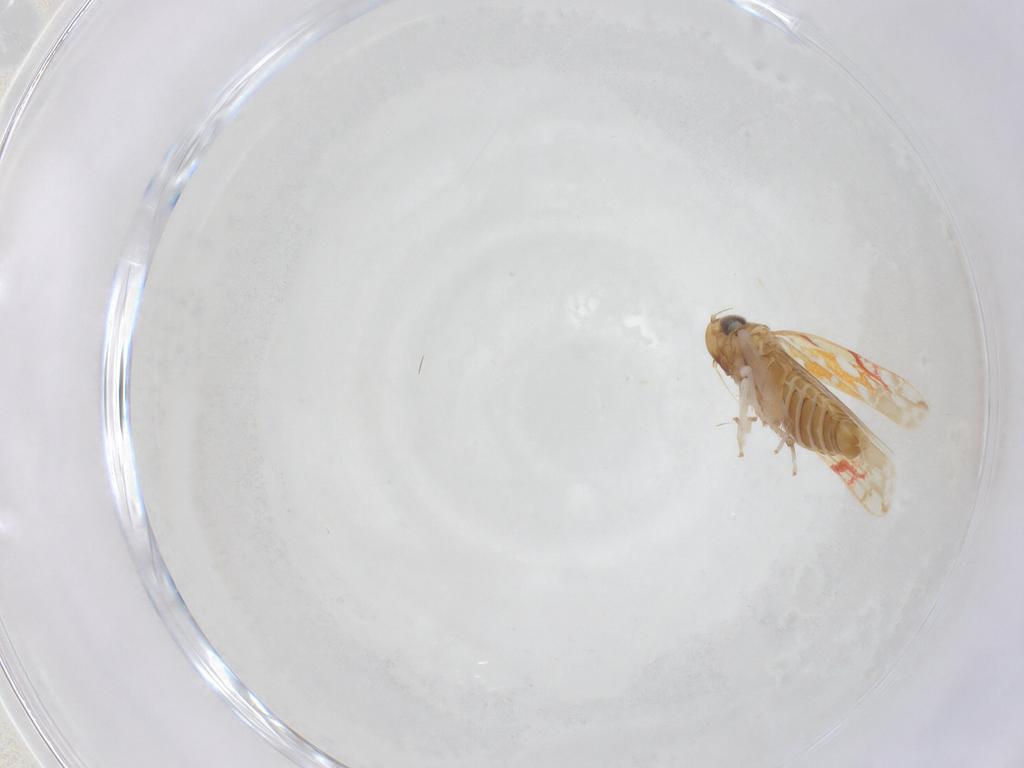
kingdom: Animalia
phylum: Arthropoda
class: Insecta
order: Hemiptera
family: Cicadellidae
